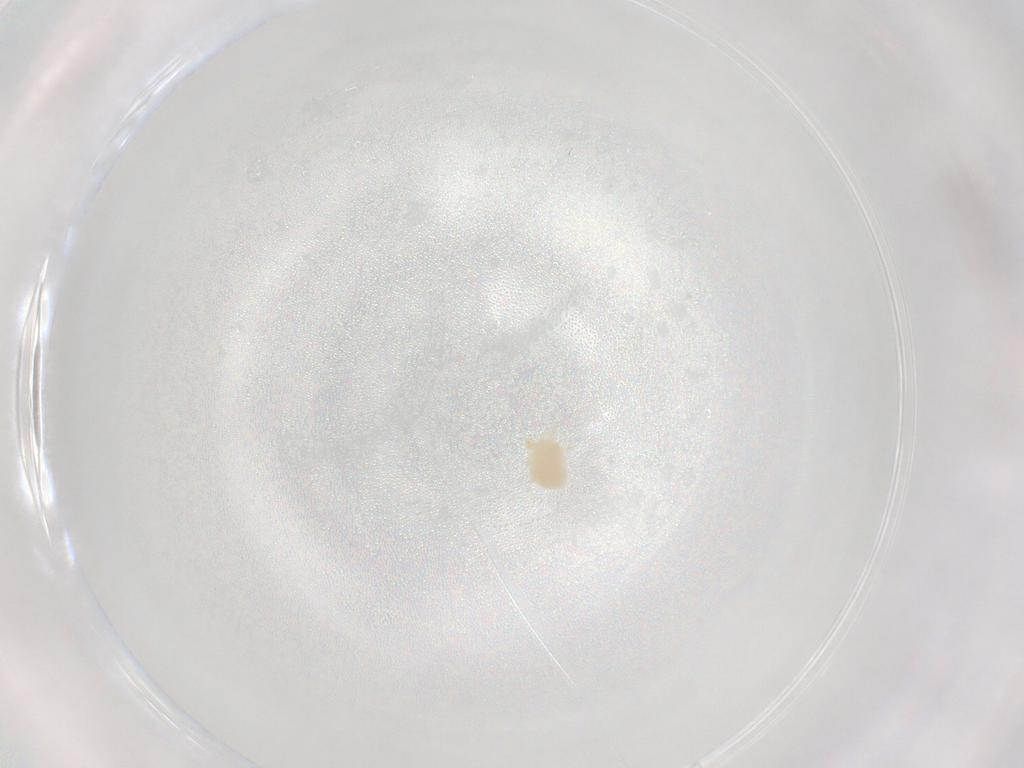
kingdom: Animalia
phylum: Arthropoda
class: Arachnida
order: Trombidiformes
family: Hydryphantidae
